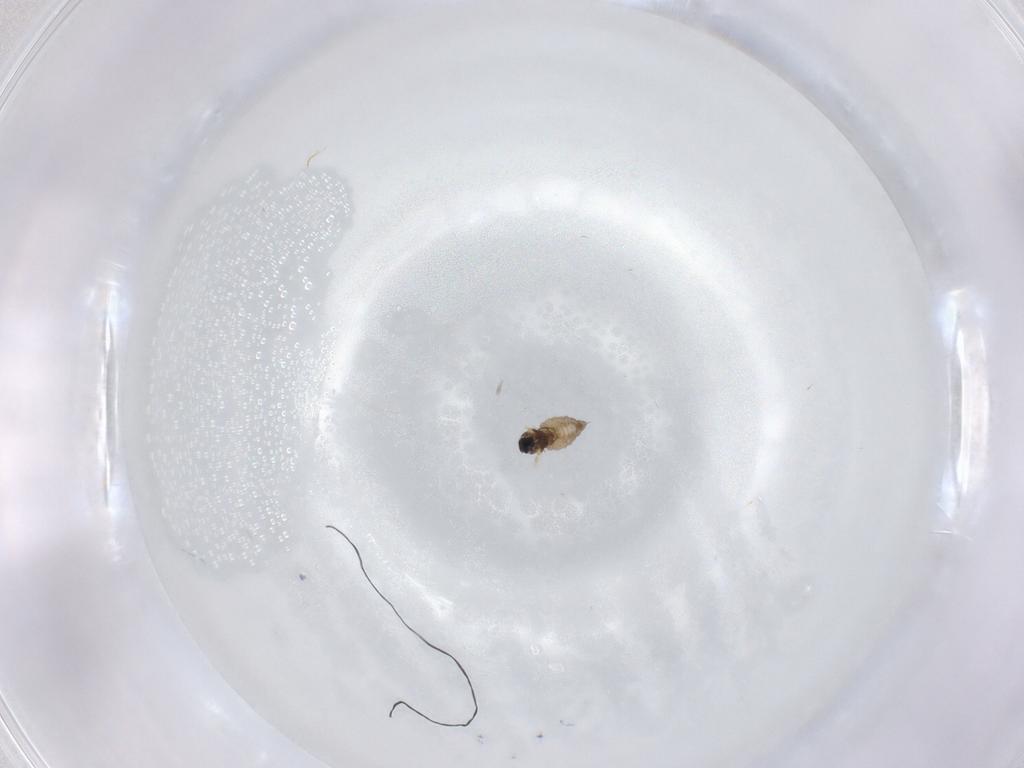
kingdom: Animalia
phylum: Arthropoda
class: Insecta
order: Diptera
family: Cecidomyiidae
